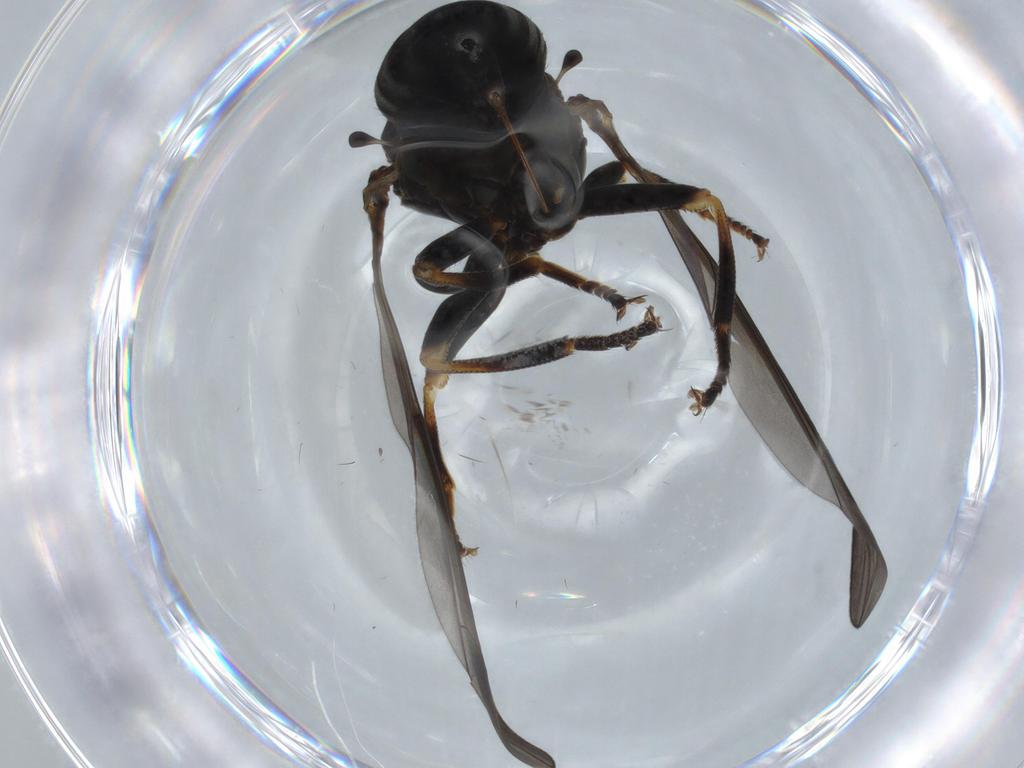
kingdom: Animalia
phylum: Arthropoda
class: Insecta
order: Diptera
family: Pipunculidae
